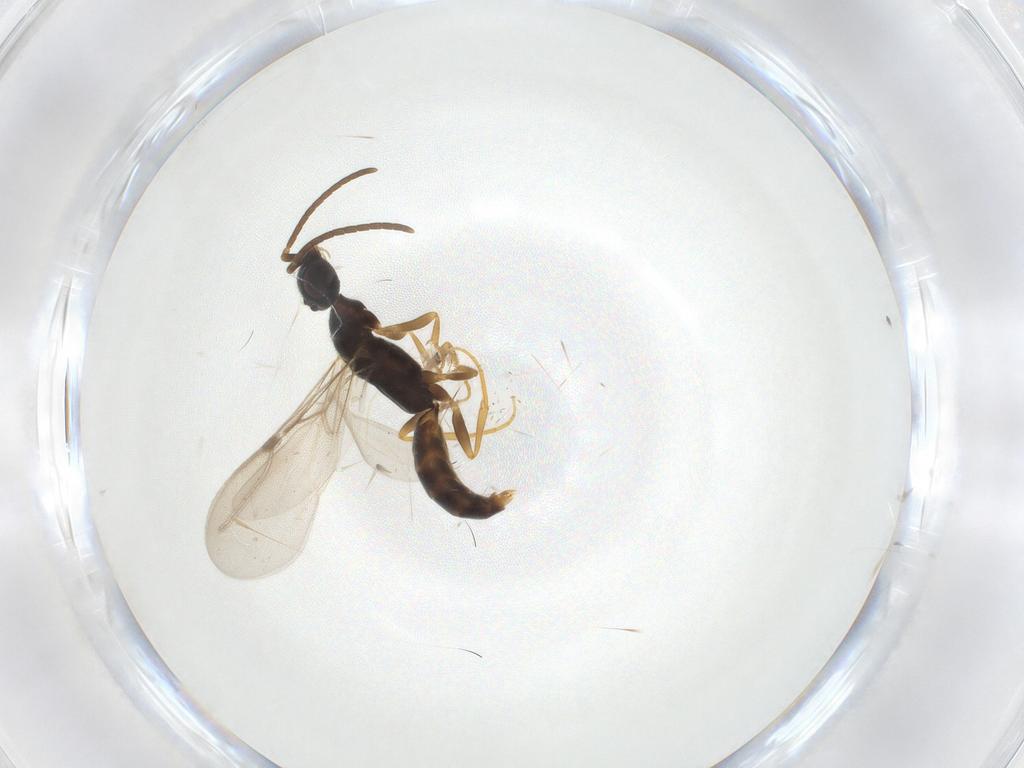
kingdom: Animalia
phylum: Arthropoda
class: Insecta
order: Hymenoptera
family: Bethylidae
